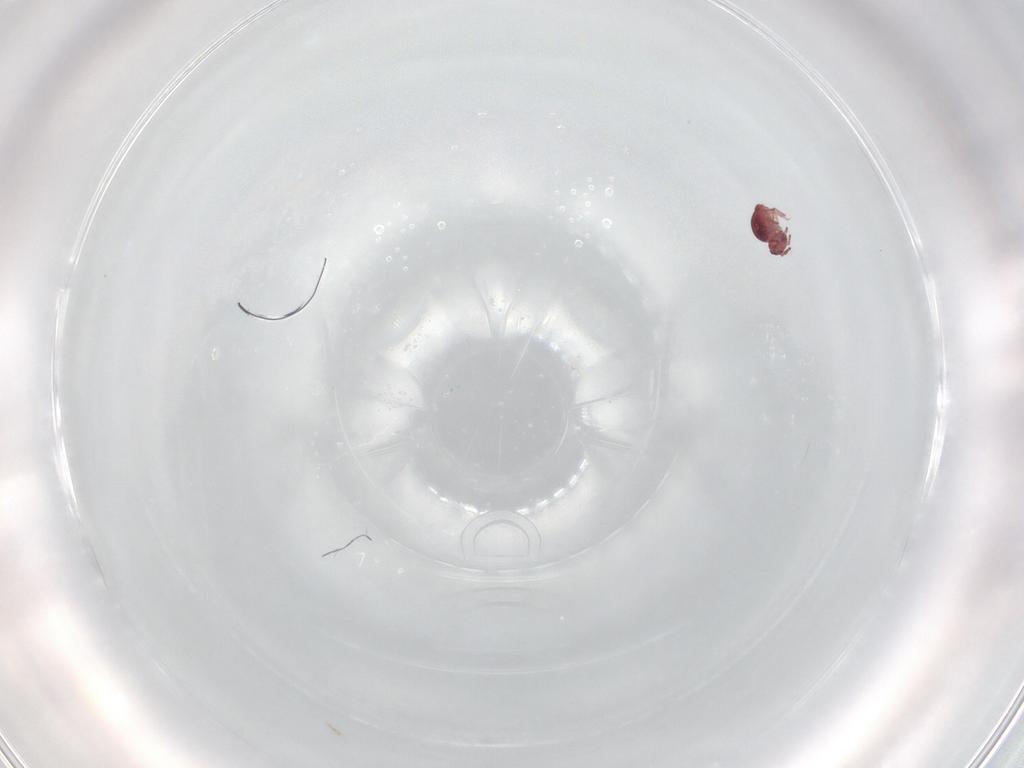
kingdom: Animalia
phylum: Arthropoda
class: Collembola
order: Symphypleona
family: Sminthurididae
